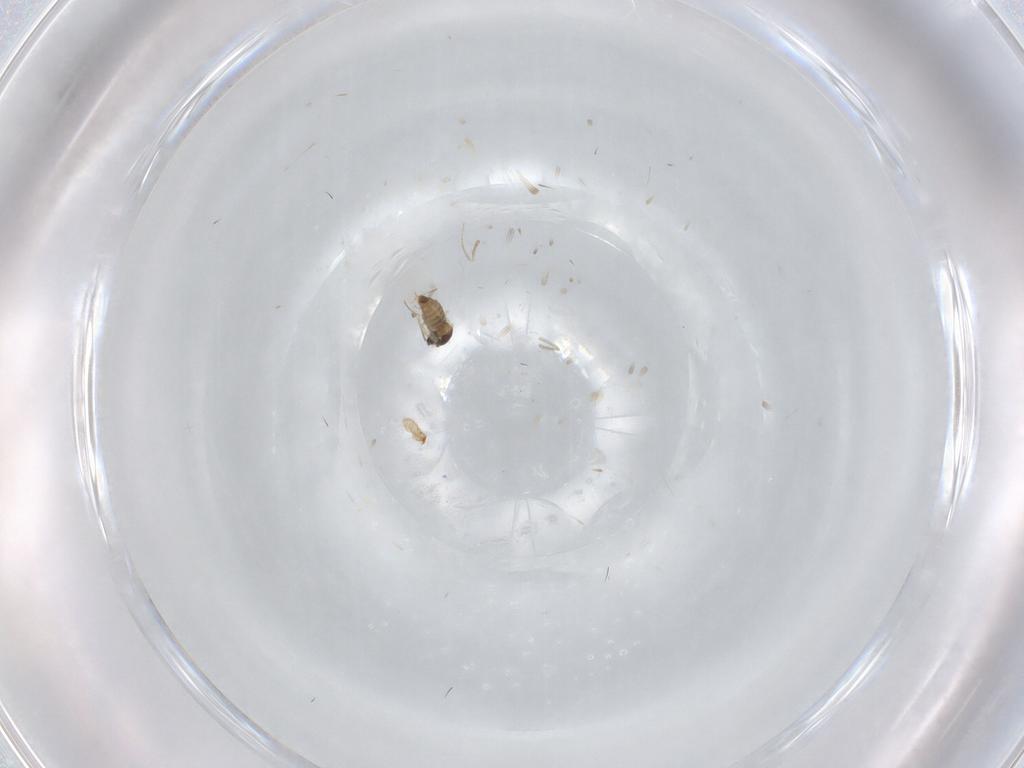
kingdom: Animalia
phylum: Arthropoda
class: Insecta
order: Diptera
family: Cecidomyiidae
